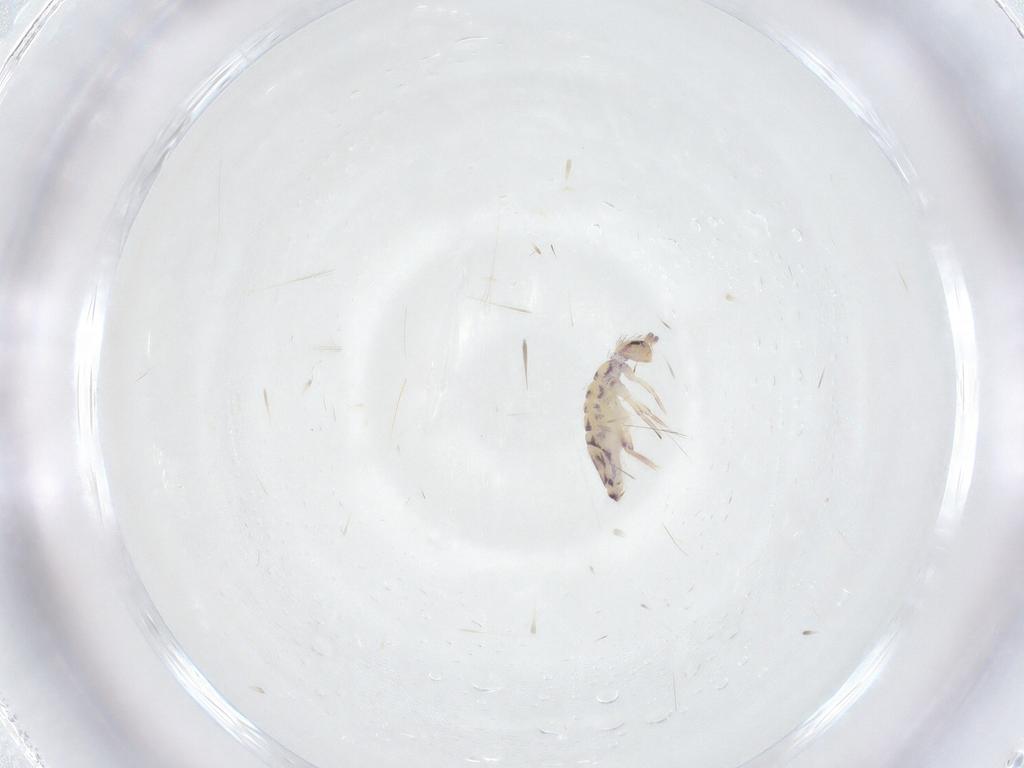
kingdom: Animalia
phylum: Arthropoda
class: Collembola
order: Entomobryomorpha
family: Entomobryidae
